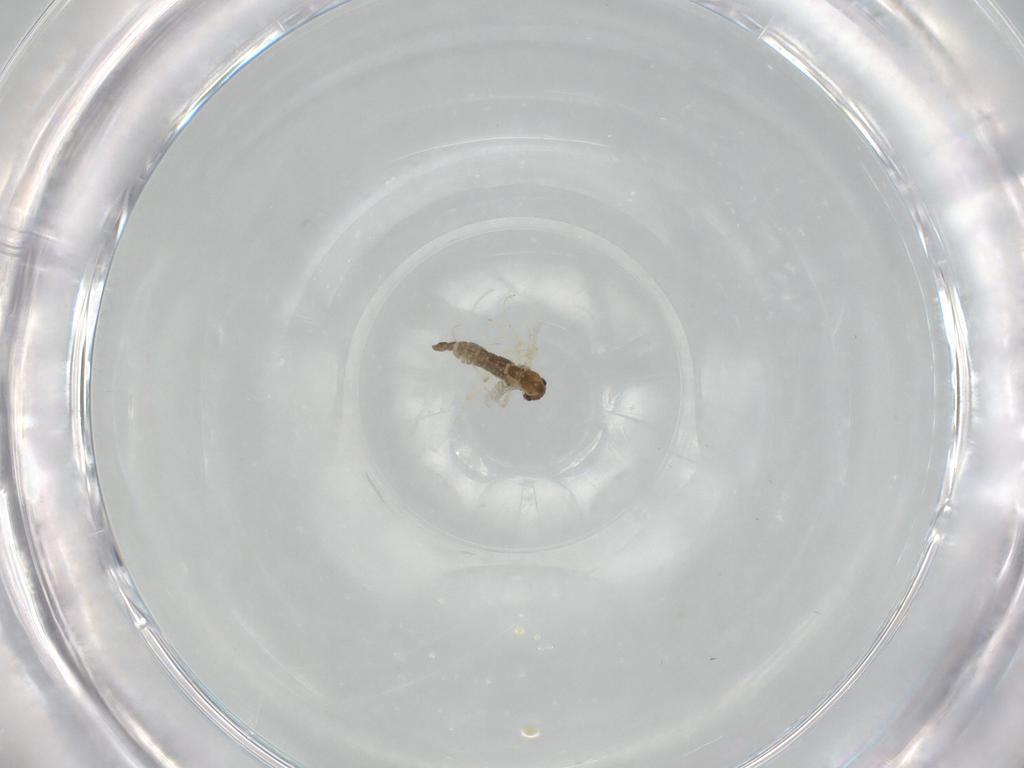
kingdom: Animalia
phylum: Arthropoda
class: Insecta
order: Diptera
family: Chironomidae
